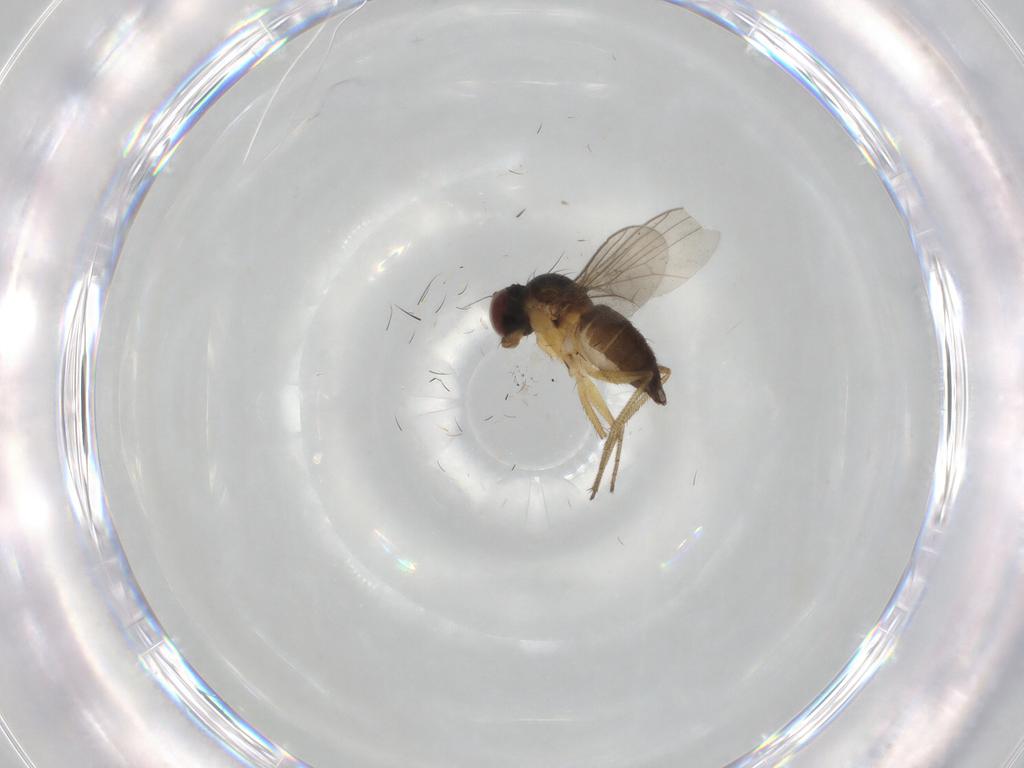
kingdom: Animalia
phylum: Arthropoda
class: Insecta
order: Diptera
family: Dolichopodidae
